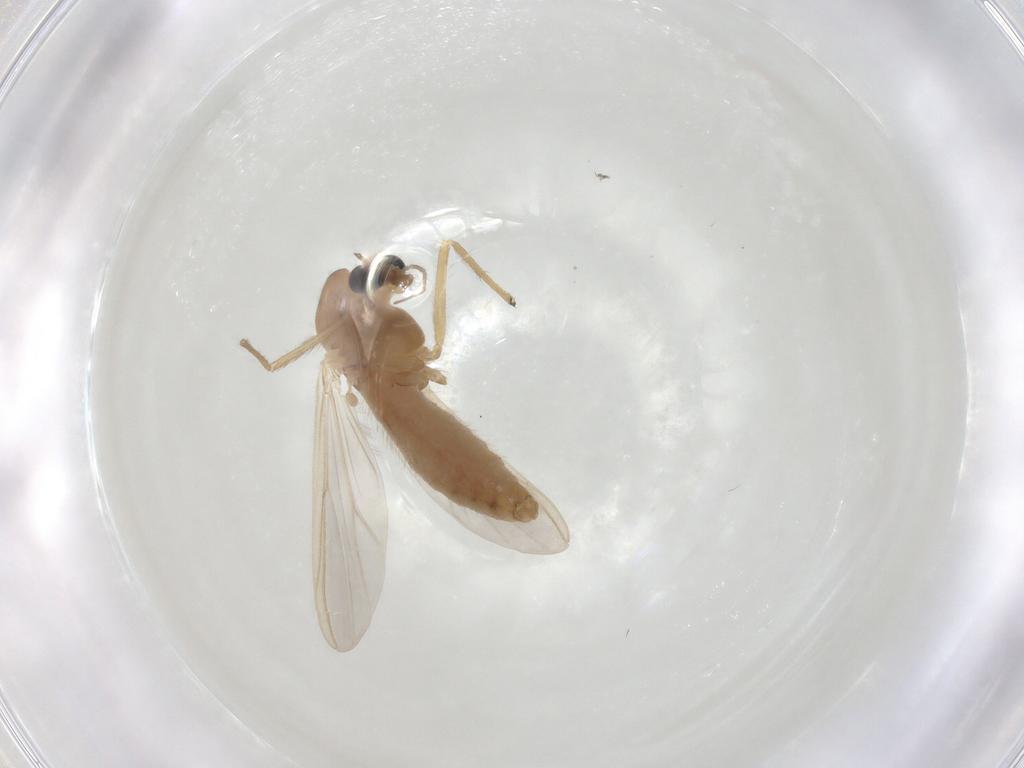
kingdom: Animalia
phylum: Arthropoda
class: Insecta
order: Diptera
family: Chironomidae
